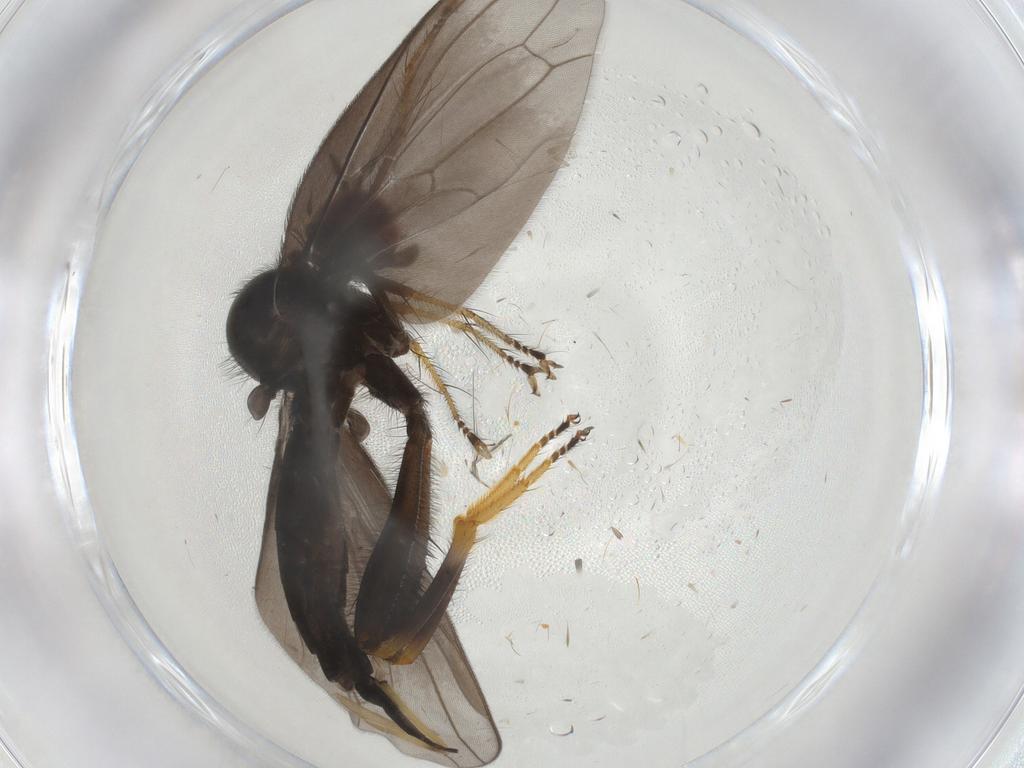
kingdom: Animalia
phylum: Arthropoda
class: Insecta
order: Diptera
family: Hybotidae
